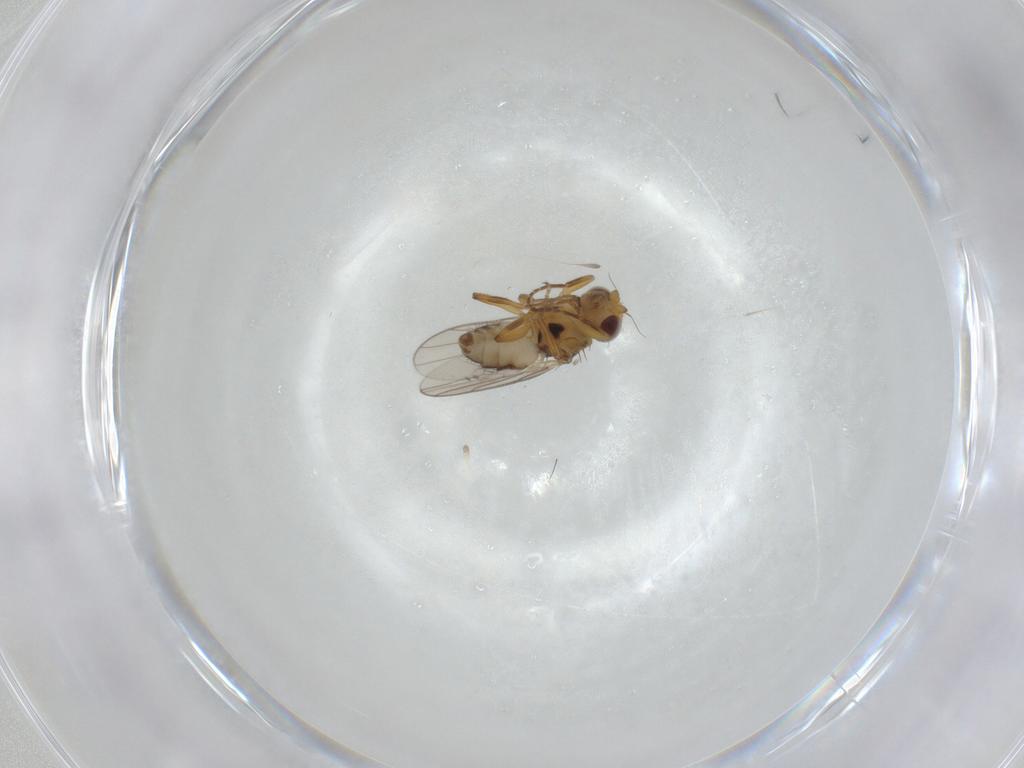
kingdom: Animalia
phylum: Arthropoda
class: Insecta
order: Diptera
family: Chloropidae
